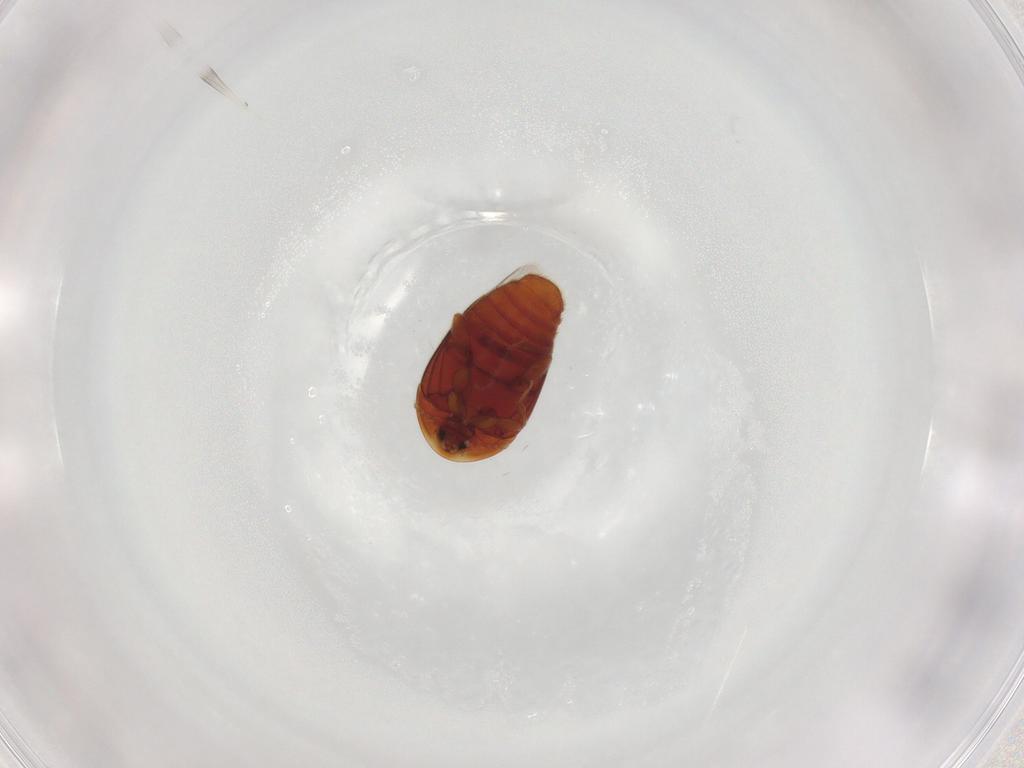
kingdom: Animalia
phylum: Arthropoda
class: Insecta
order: Coleoptera
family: Corylophidae
